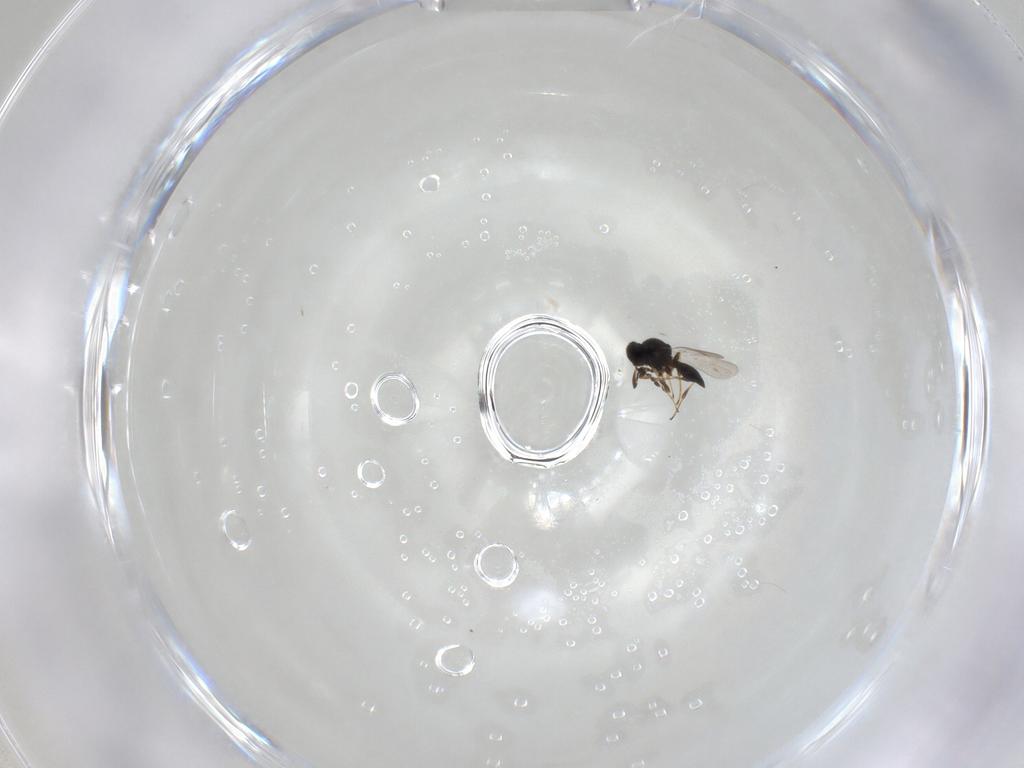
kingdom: Animalia
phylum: Arthropoda
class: Insecta
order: Hymenoptera
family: Platygastridae
